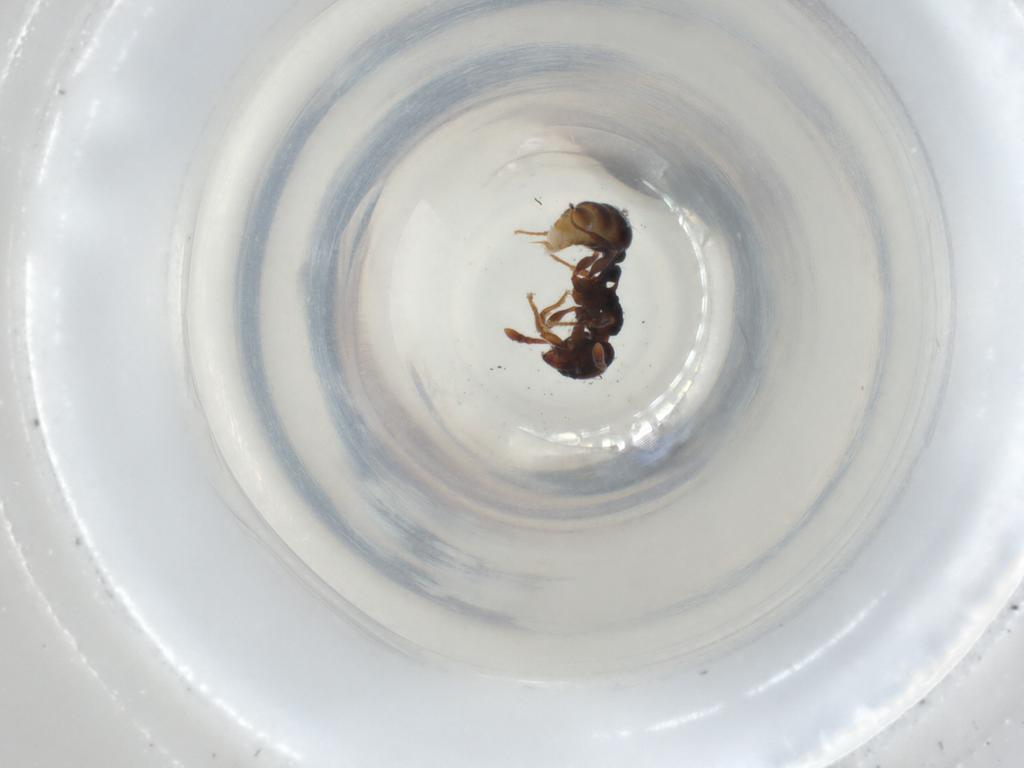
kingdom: Animalia
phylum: Arthropoda
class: Insecta
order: Hymenoptera
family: Formicidae
